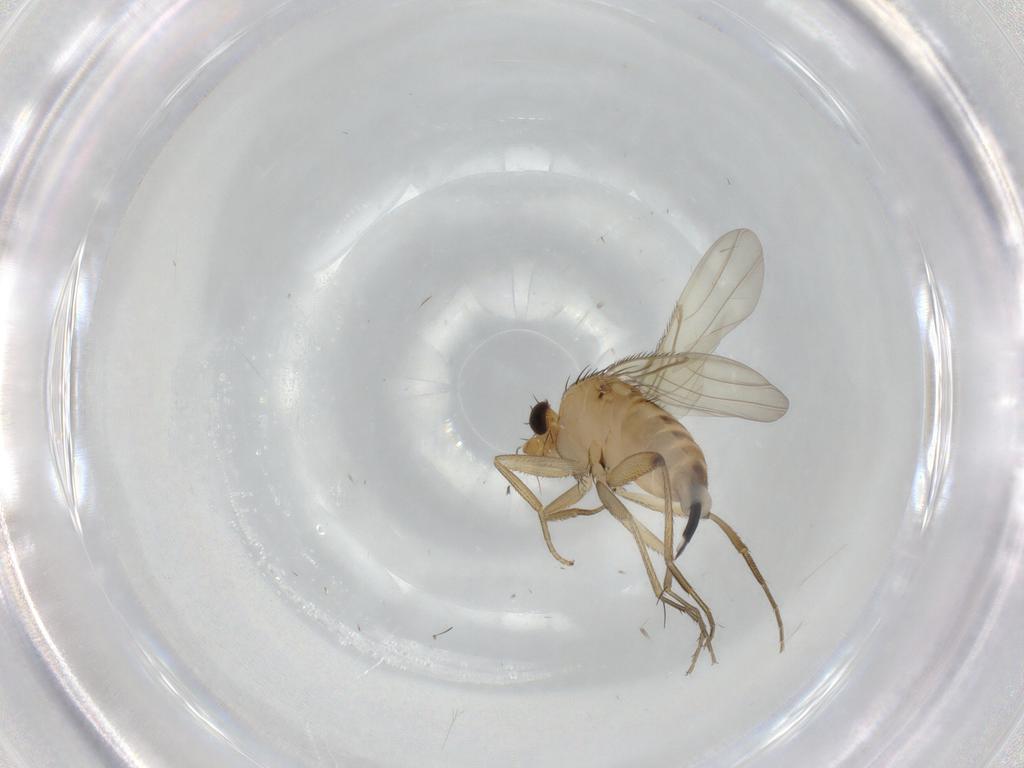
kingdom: Animalia
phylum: Arthropoda
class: Insecta
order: Diptera
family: Phoridae
